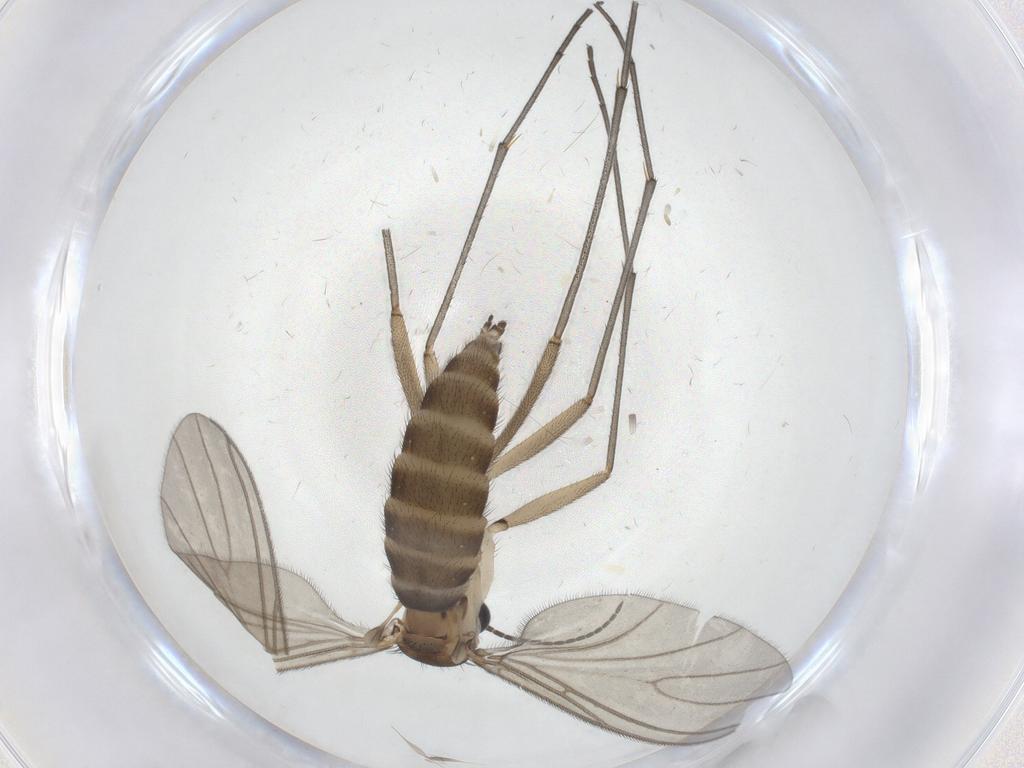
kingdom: Animalia
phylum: Arthropoda
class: Insecta
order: Diptera
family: Sciaridae
